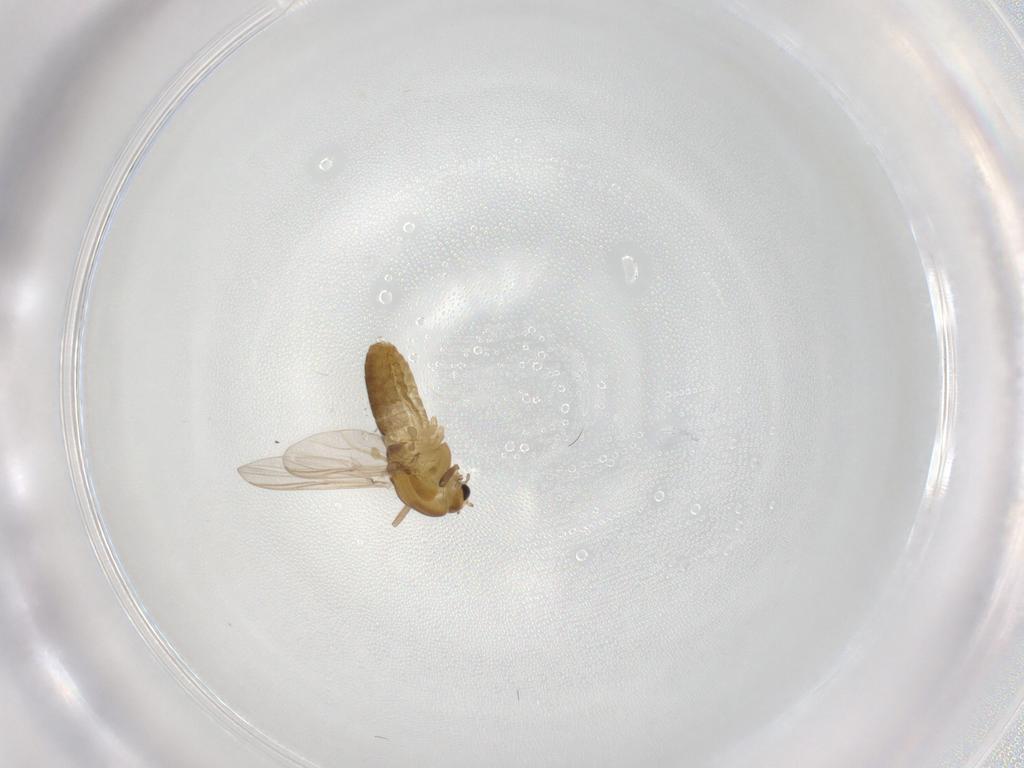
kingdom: Animalia
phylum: Arthropoda
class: Insecta
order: Diptera
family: Chironomidae
